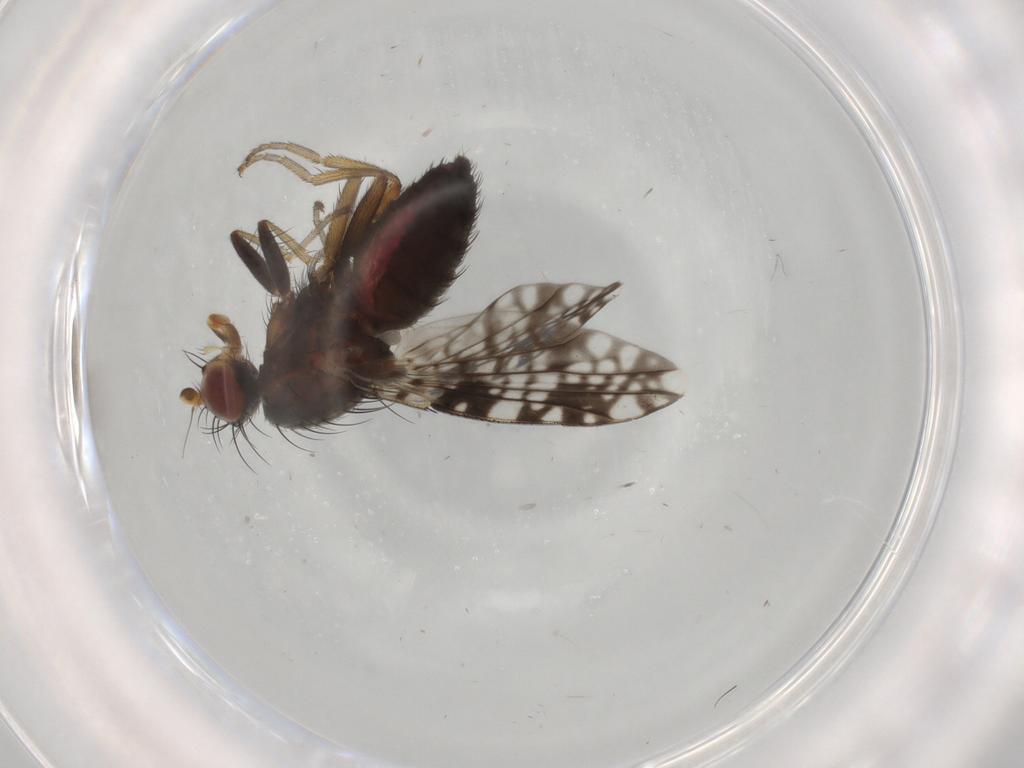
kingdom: Animalia
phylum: Arthropoda
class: Insecta
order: Diptera
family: Tephritidae
